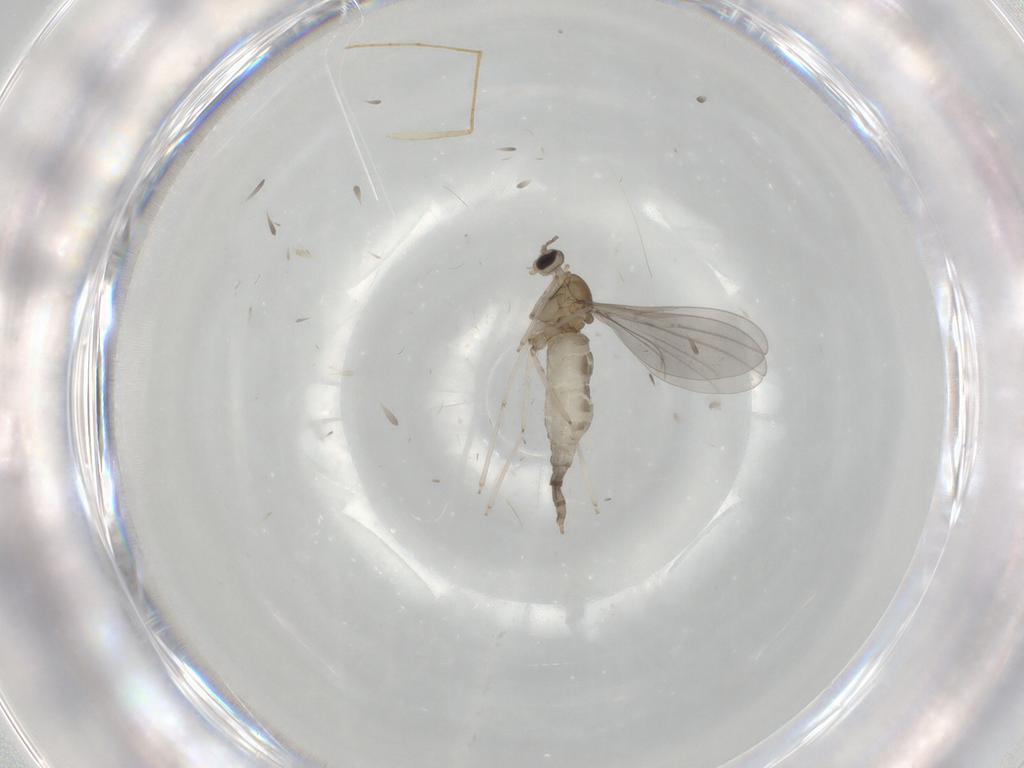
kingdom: Animalia
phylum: Arthropoda
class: Insecta
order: Diptera
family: Cecidomyiidae
